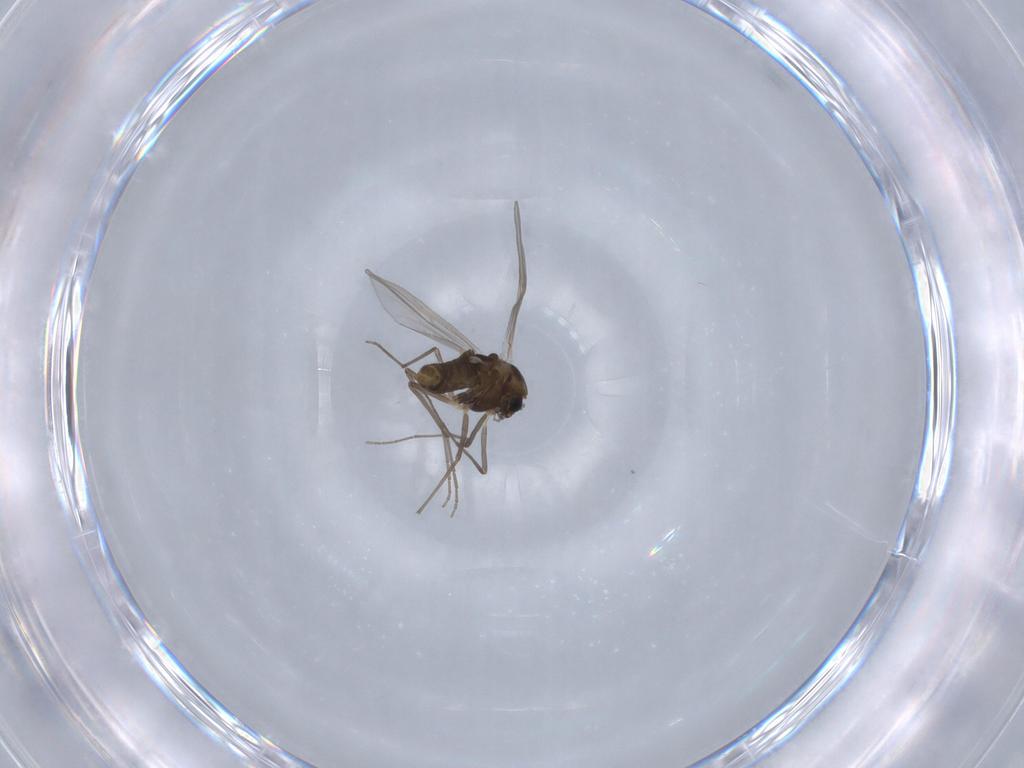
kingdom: Animalia
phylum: Arthropoda
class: Insecta
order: Diptera
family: Chironomidae
